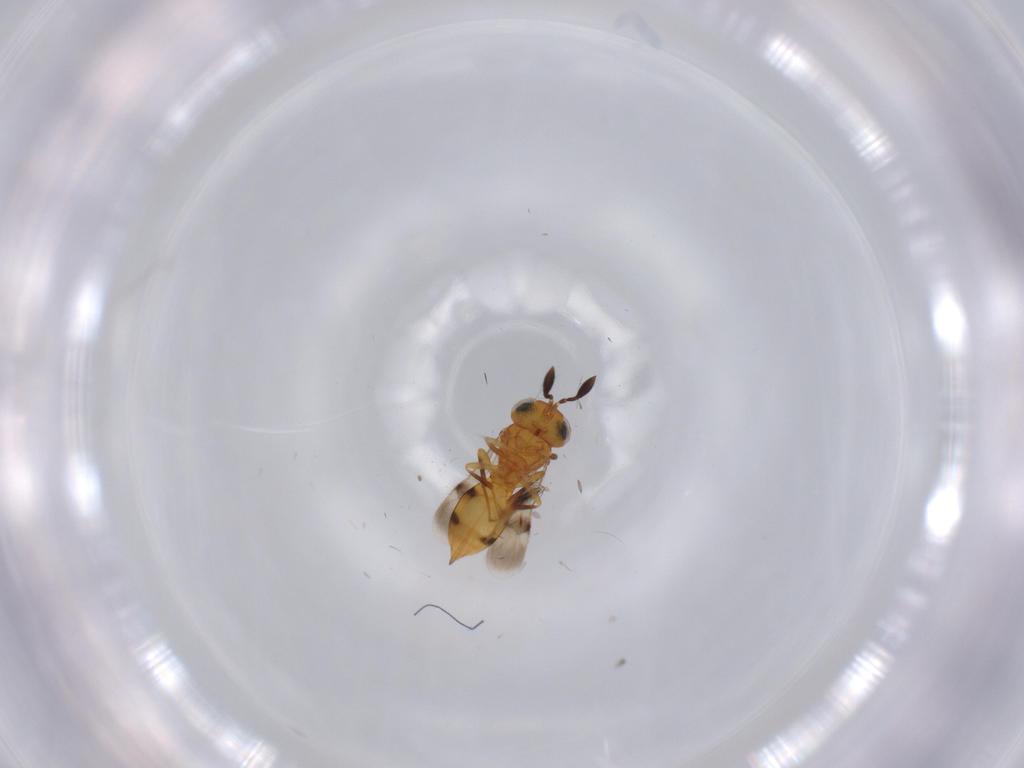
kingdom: Animalia
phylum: Arthropoda
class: Insecta
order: Hymenoptera
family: Scelionidae
